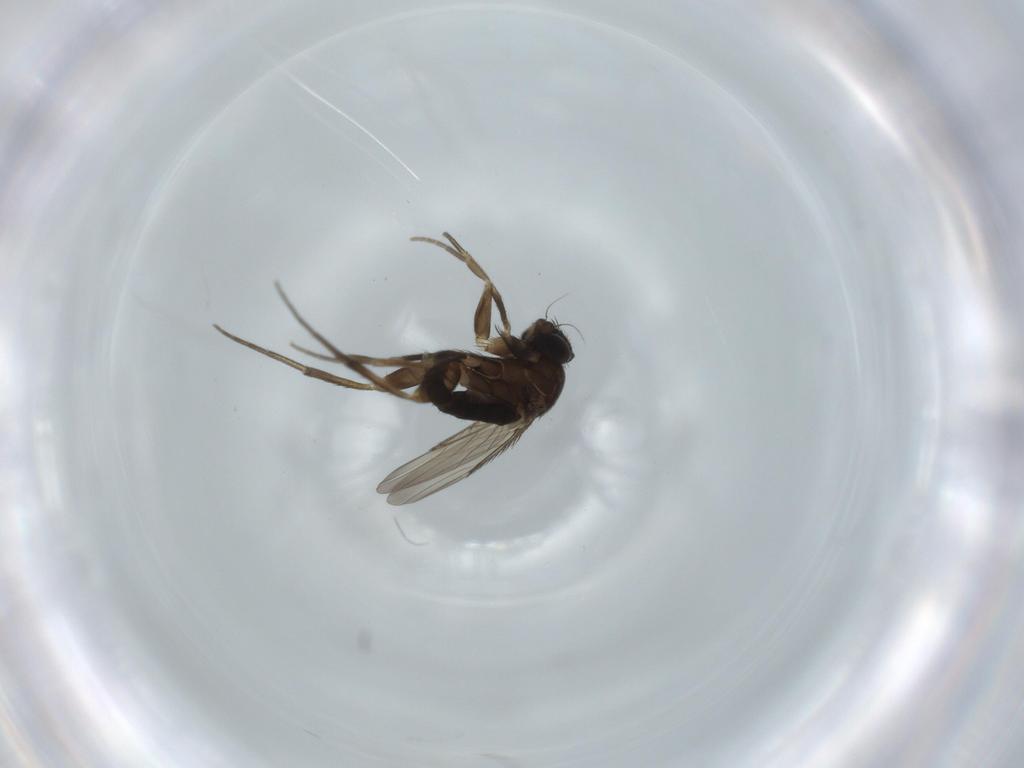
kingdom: Animalia
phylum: Arthropoda
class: Insecta
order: Diptera
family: Phoridae
